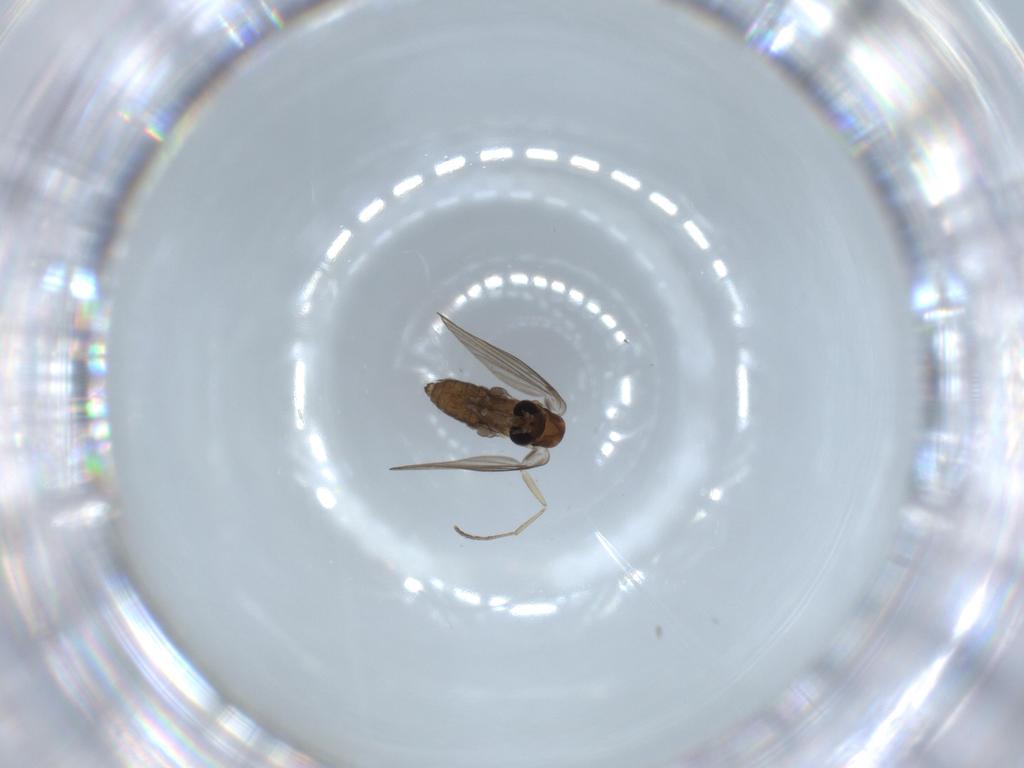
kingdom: Animalia
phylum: Arthropoda
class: Insecta
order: Diptera
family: Psychodidae
